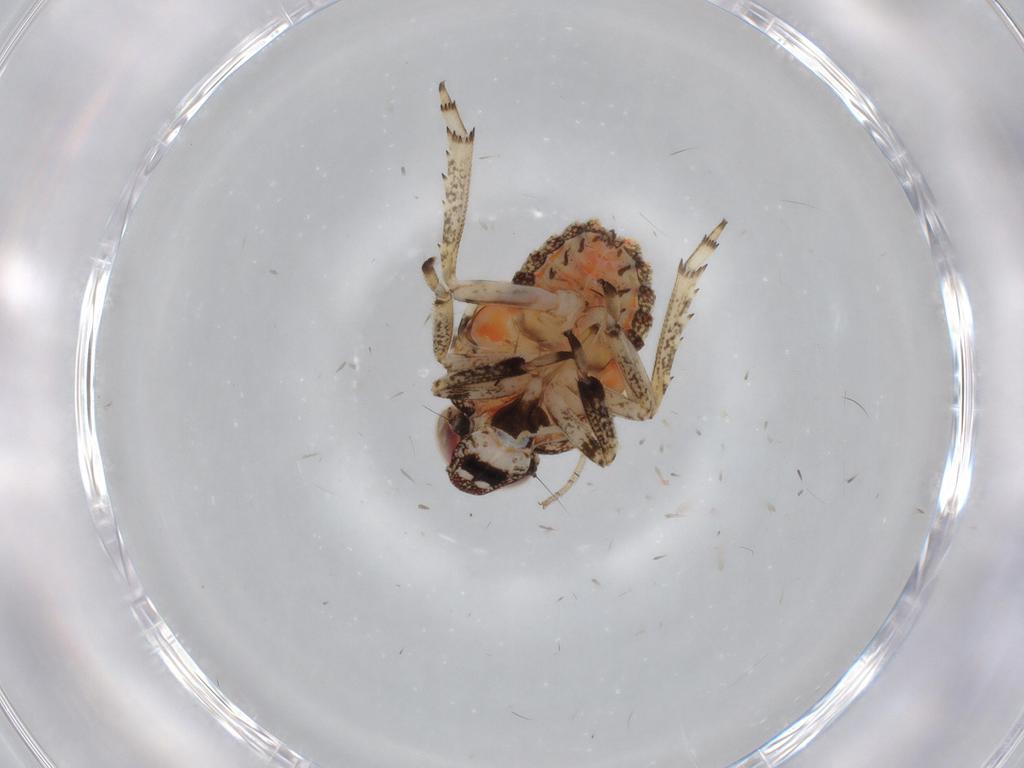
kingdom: Animalia
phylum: Arthropoda
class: Insecta
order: Hemiptera
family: Issidae
